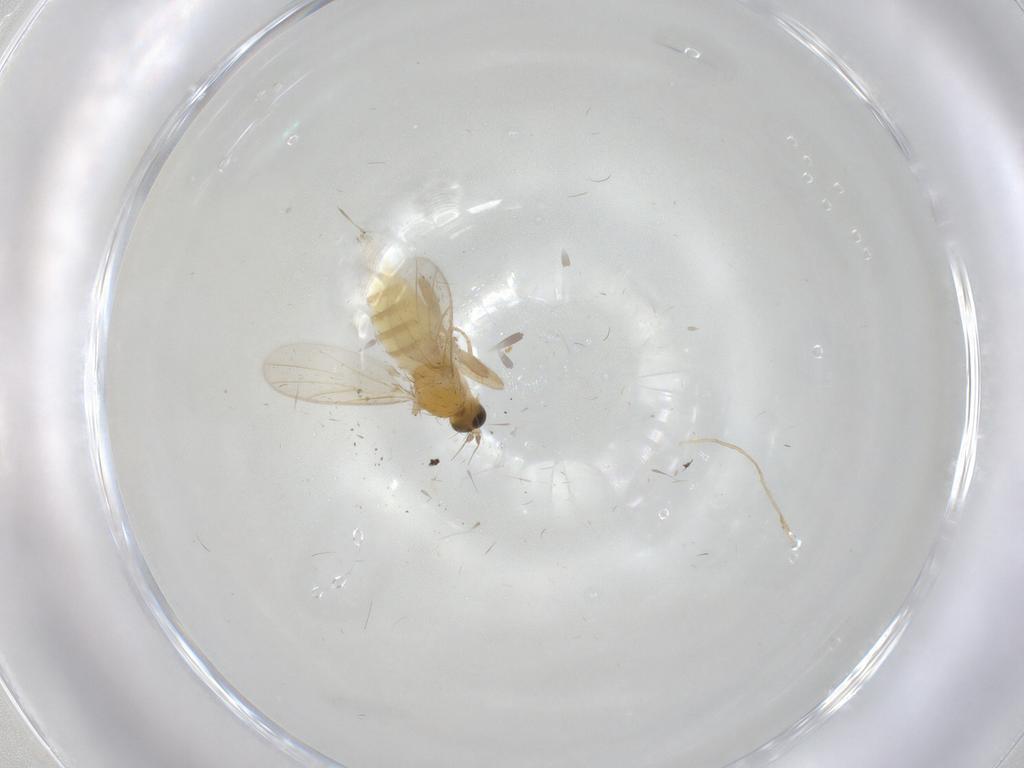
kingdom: Animalia
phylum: Arthropoda
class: Insecta
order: Diptera
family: Hybotidae
